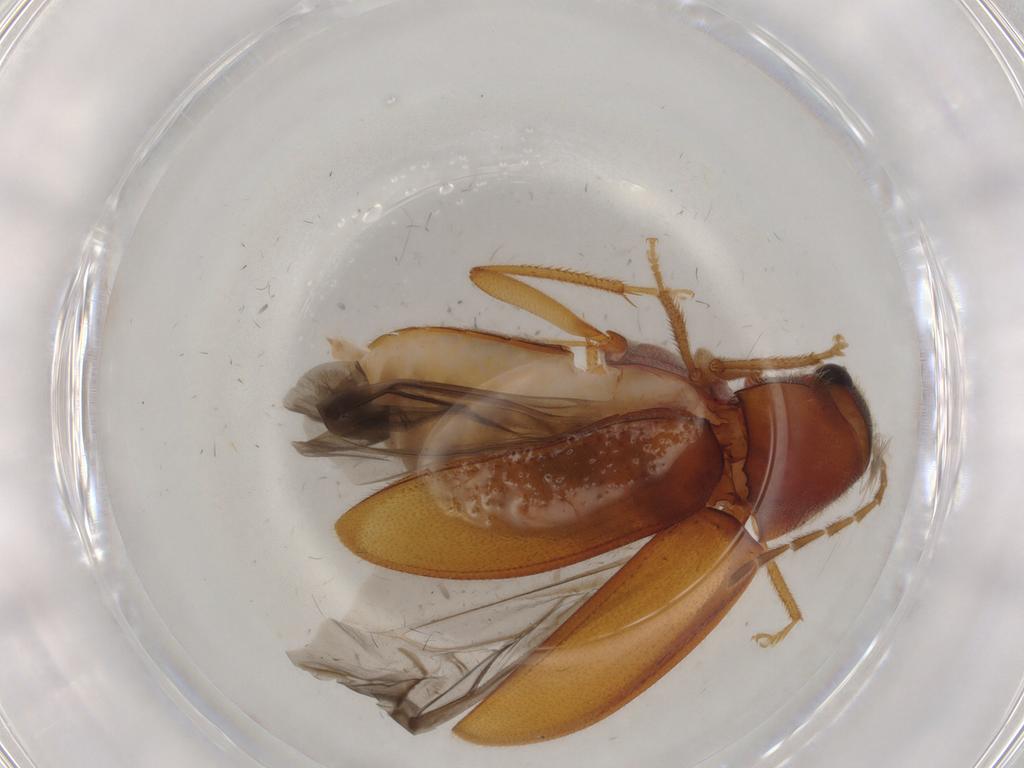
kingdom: Animalia
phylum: Arthropoda
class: Insecta
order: Coleoptera
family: Ptilodactylidae
